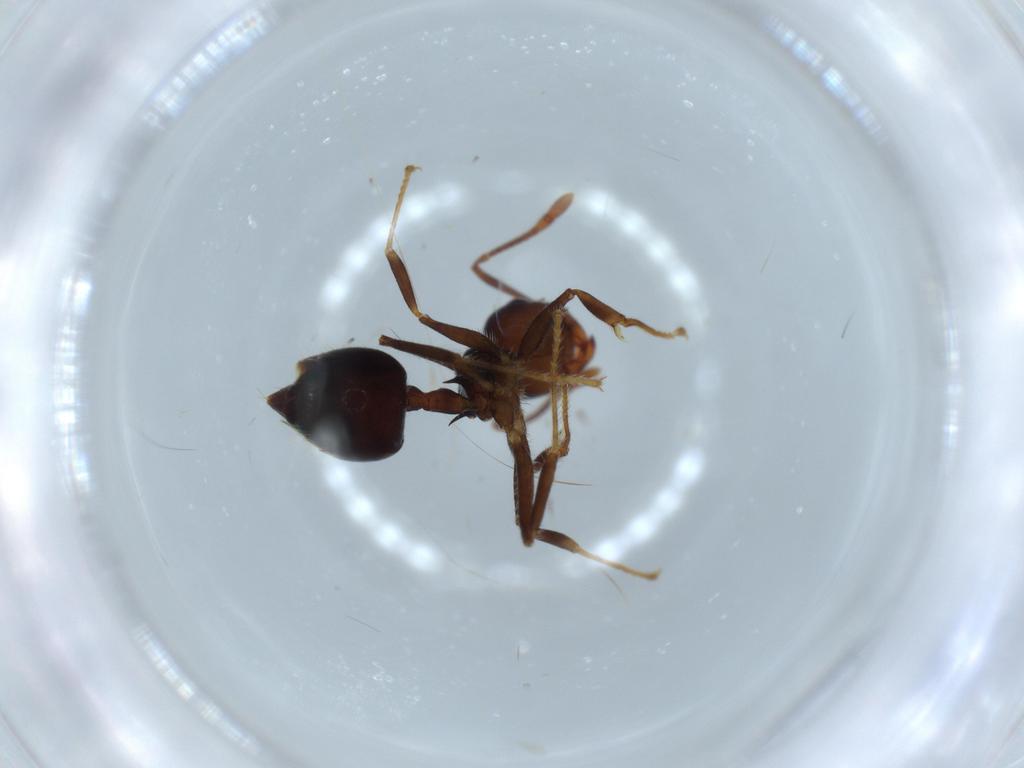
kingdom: Animalia
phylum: Arthropoda
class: Insecta
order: Hymenoptera
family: Formicidae
